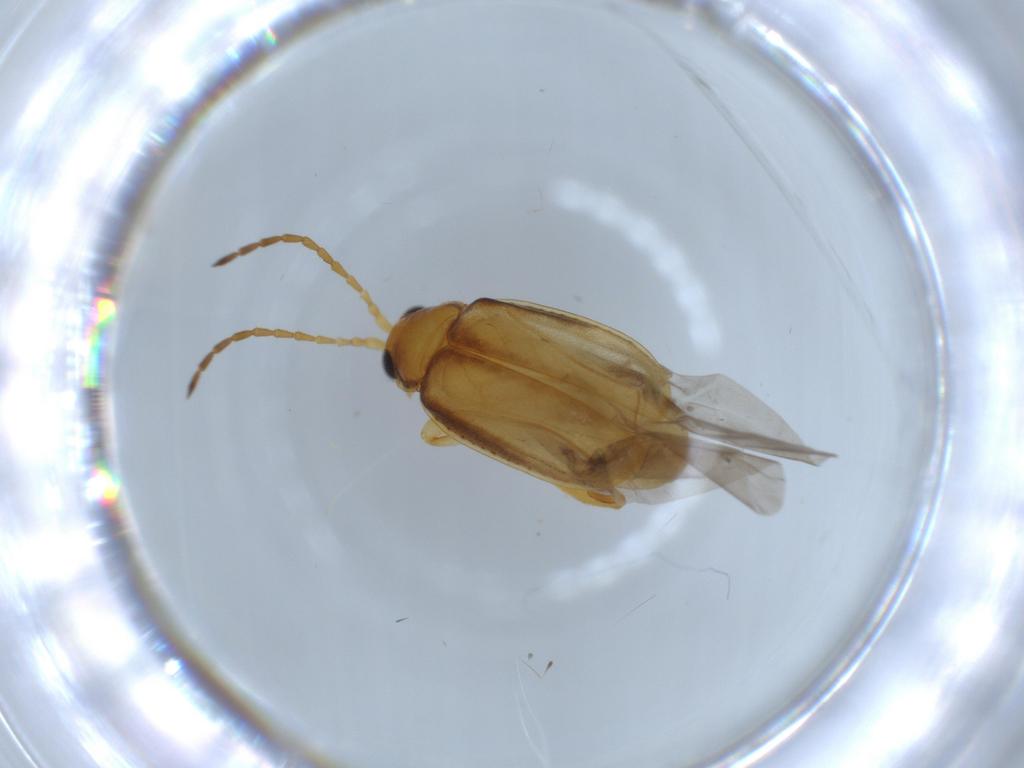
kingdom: Animalia
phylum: Arthropoda
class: Insecta
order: Coleoptera
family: Chrysomelidae
